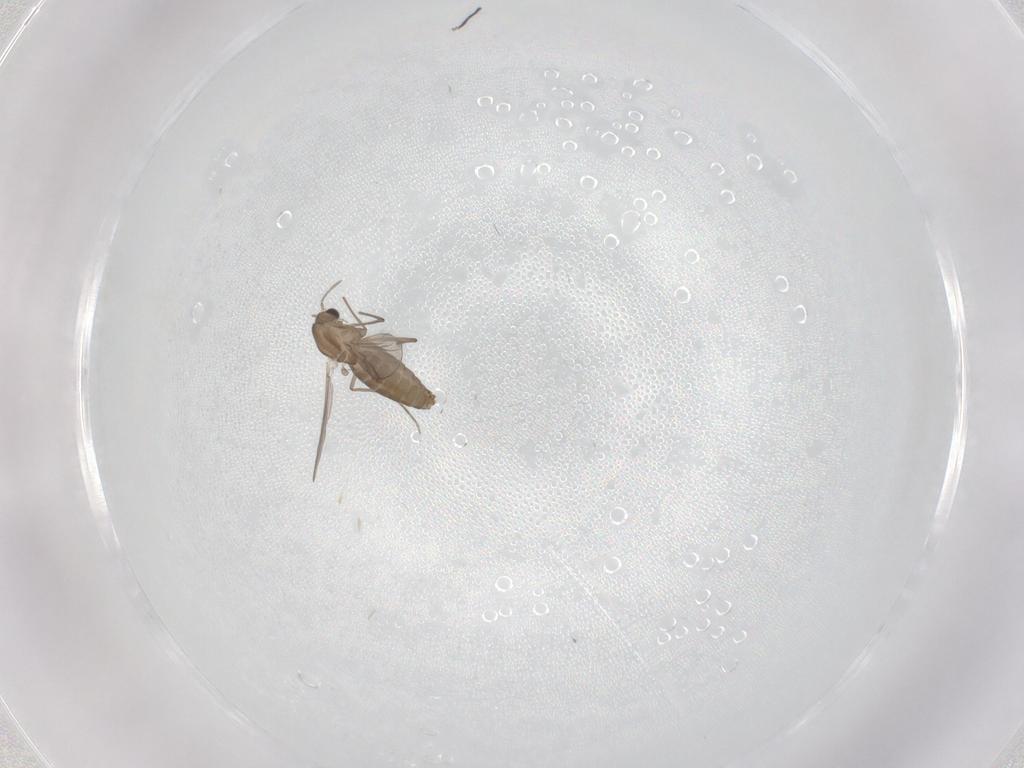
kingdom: Animalia
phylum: Arthropoda
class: Insecta
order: Diptera
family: Chironomidae
